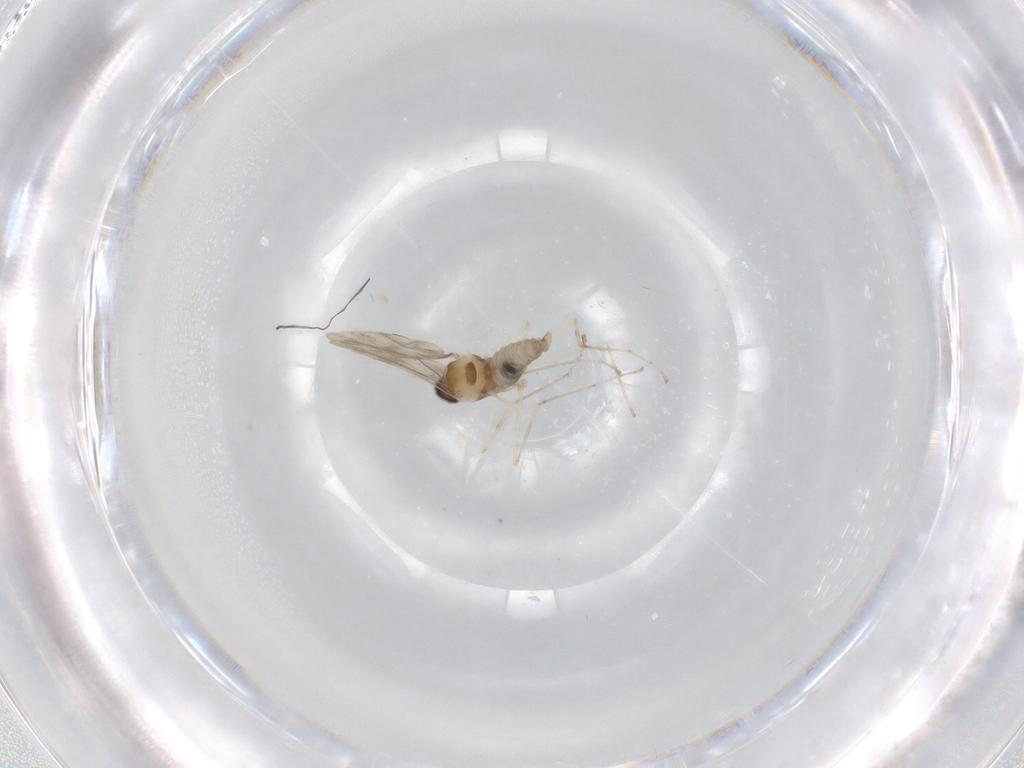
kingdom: Animalia
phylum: Arthropoda
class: Insecta
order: Diptera
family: Cecidomyiidae
